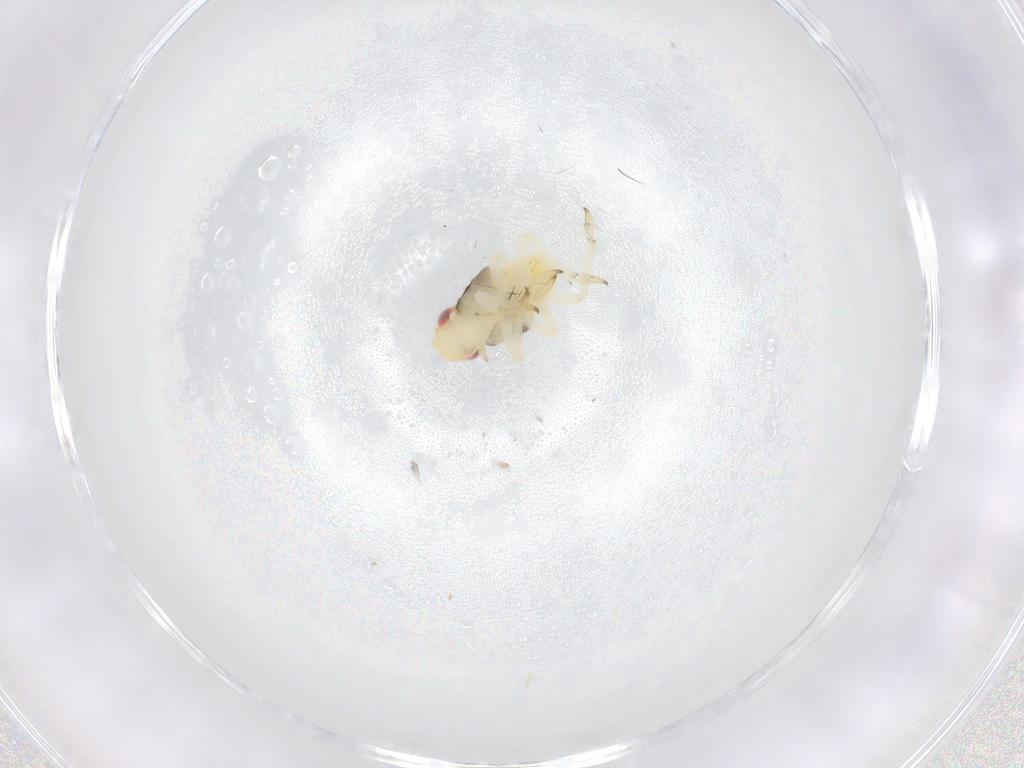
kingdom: Animalia
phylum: Arthropoda
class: Insecta
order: Hemiptera
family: Caliscelidae
